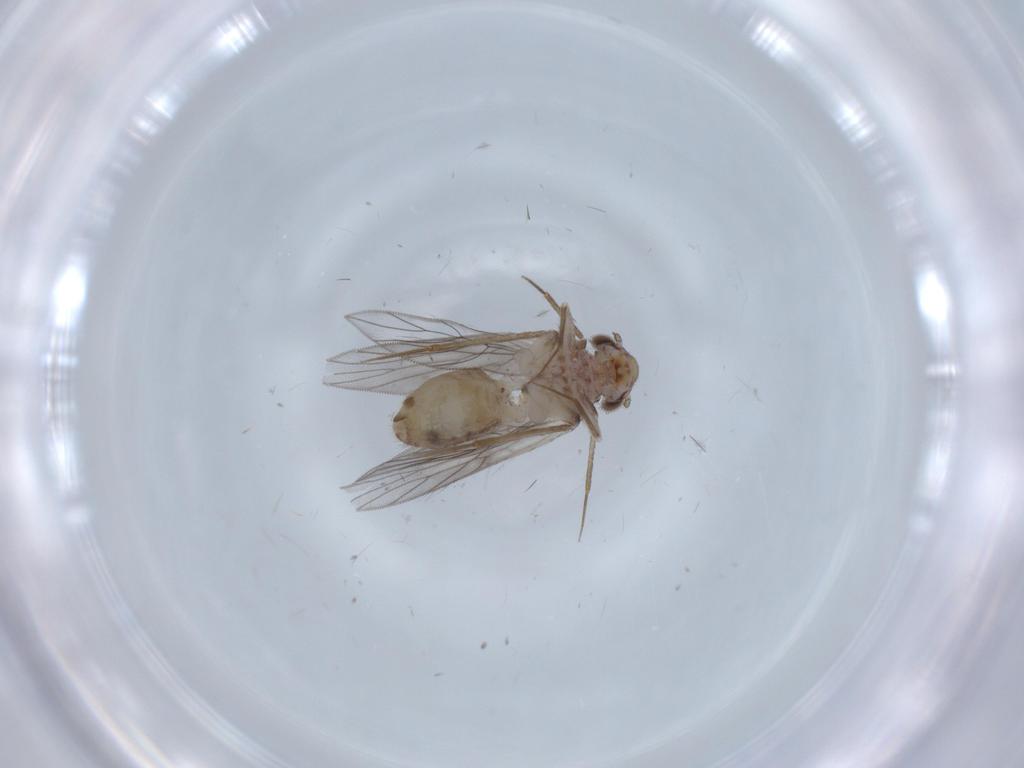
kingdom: Animalia
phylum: Arthropoda
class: Insecta
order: Psocodea
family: Lepidopsocidae
